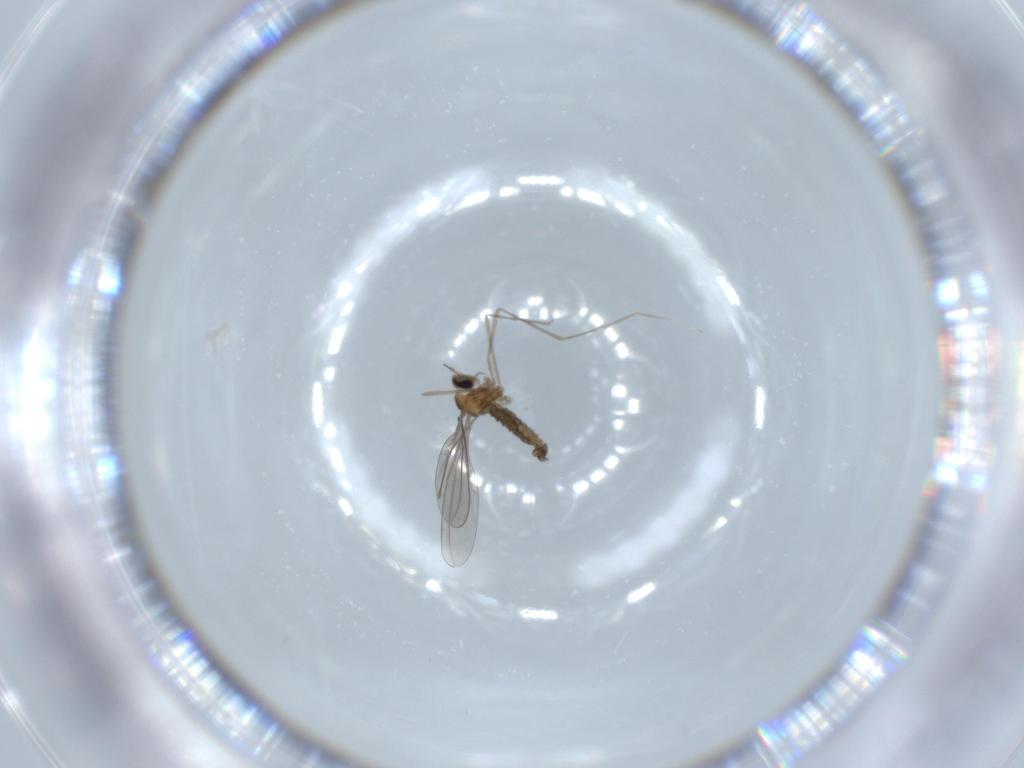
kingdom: Animalia
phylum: Arthropoda
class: Insecta
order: Diptera
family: Cecidomyiidae
